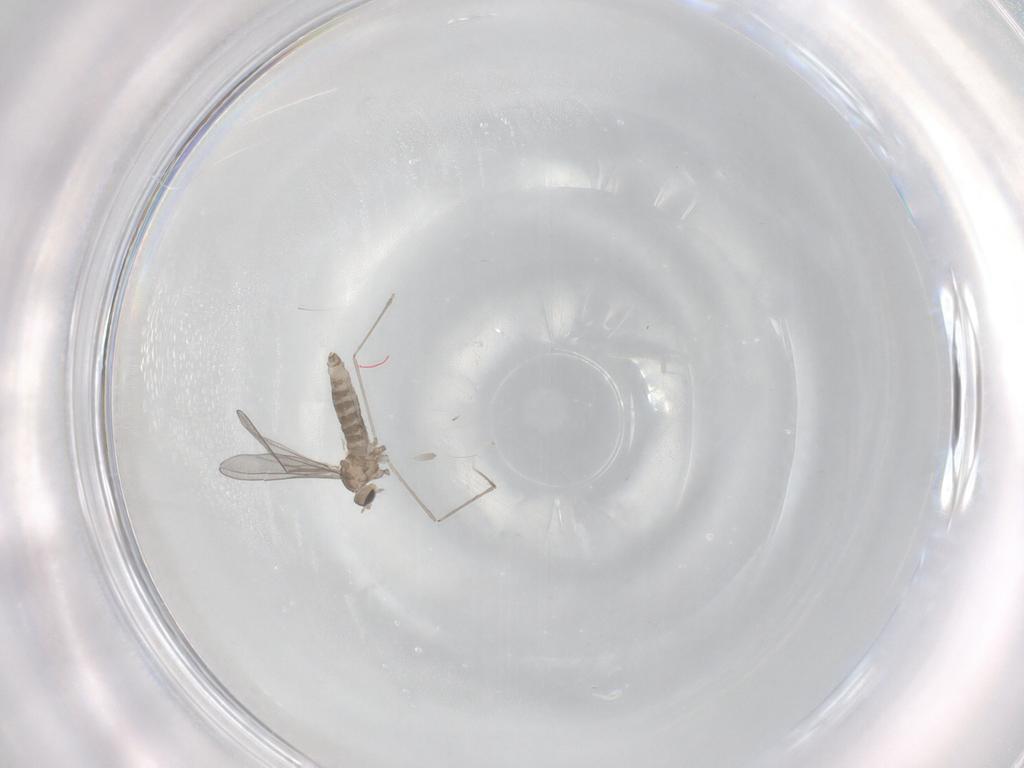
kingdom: Animalia
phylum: Arthropoda
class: Insecta
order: Diptera
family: Cecidomyiidae
